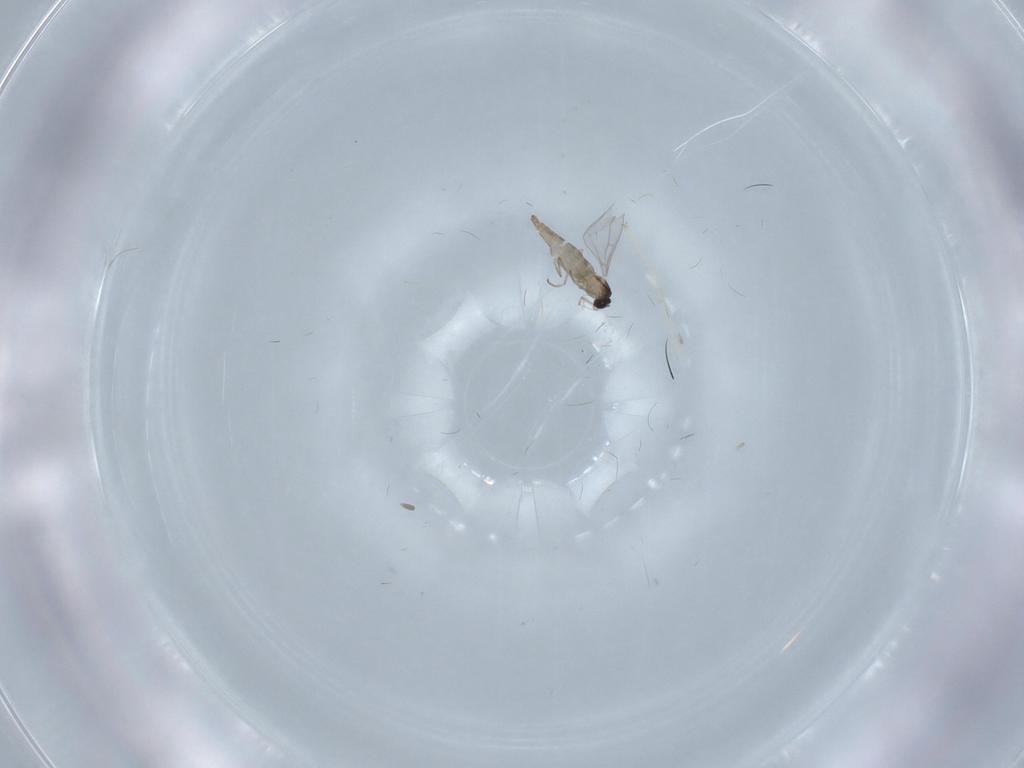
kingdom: Animalia
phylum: Arthropoda
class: Insecta
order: Diptera
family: Cecidomyiidae
